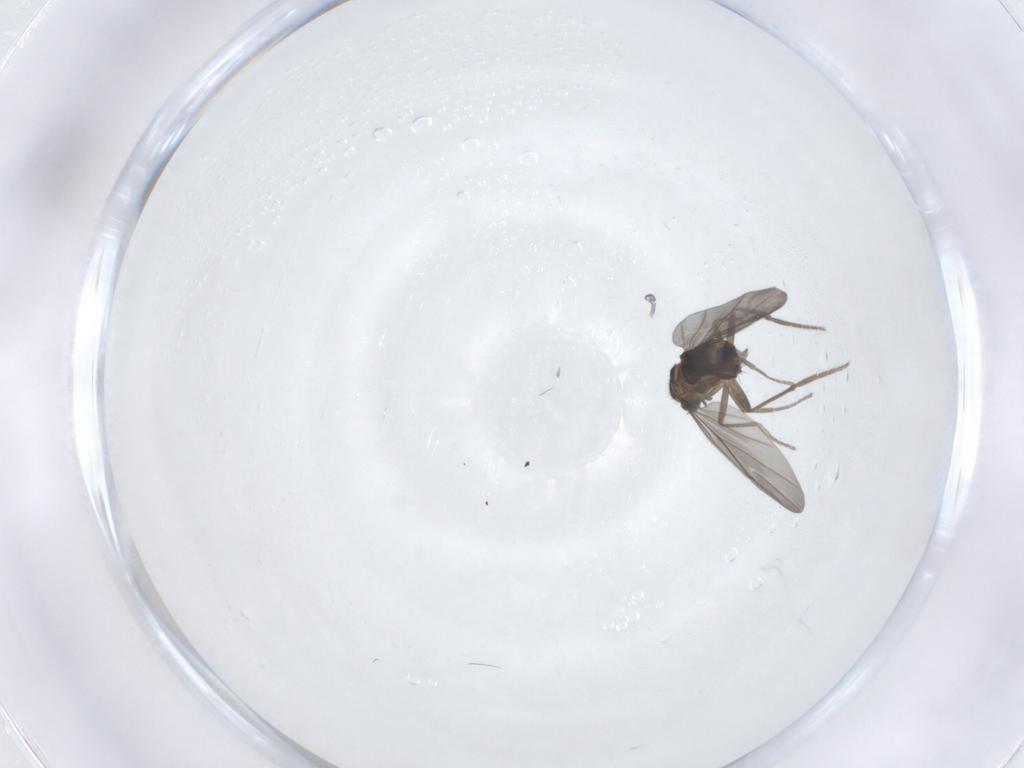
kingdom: Animalia
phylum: Arthropoda
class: Insecta
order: Diptera
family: Phoridae
